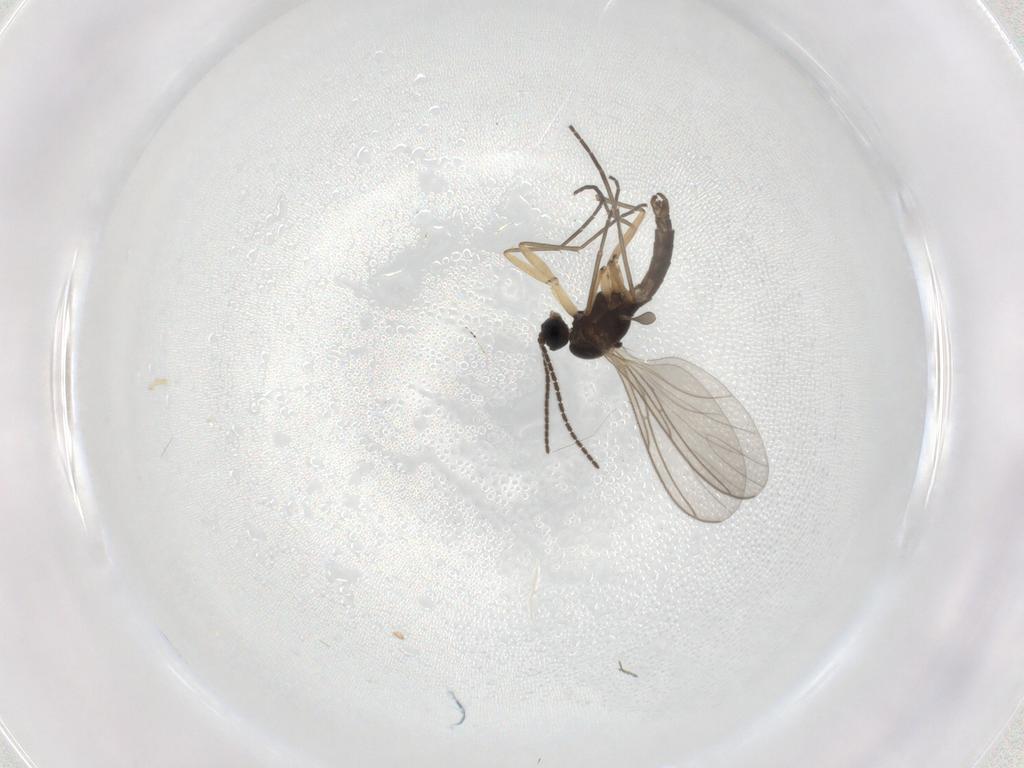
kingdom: Animalia
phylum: Arthropoda
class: Insecta
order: Diptera
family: Sciaridae
